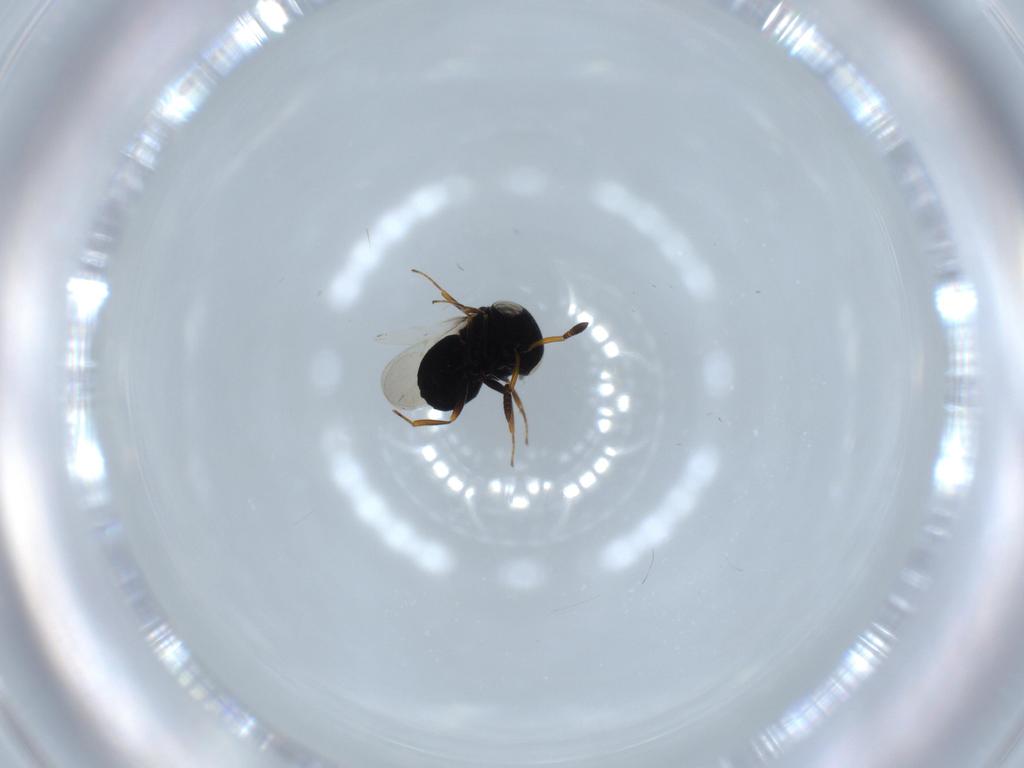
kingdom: Animalia
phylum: Arthropoda
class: Insecta
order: Hymenoptera
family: Scelionidae
